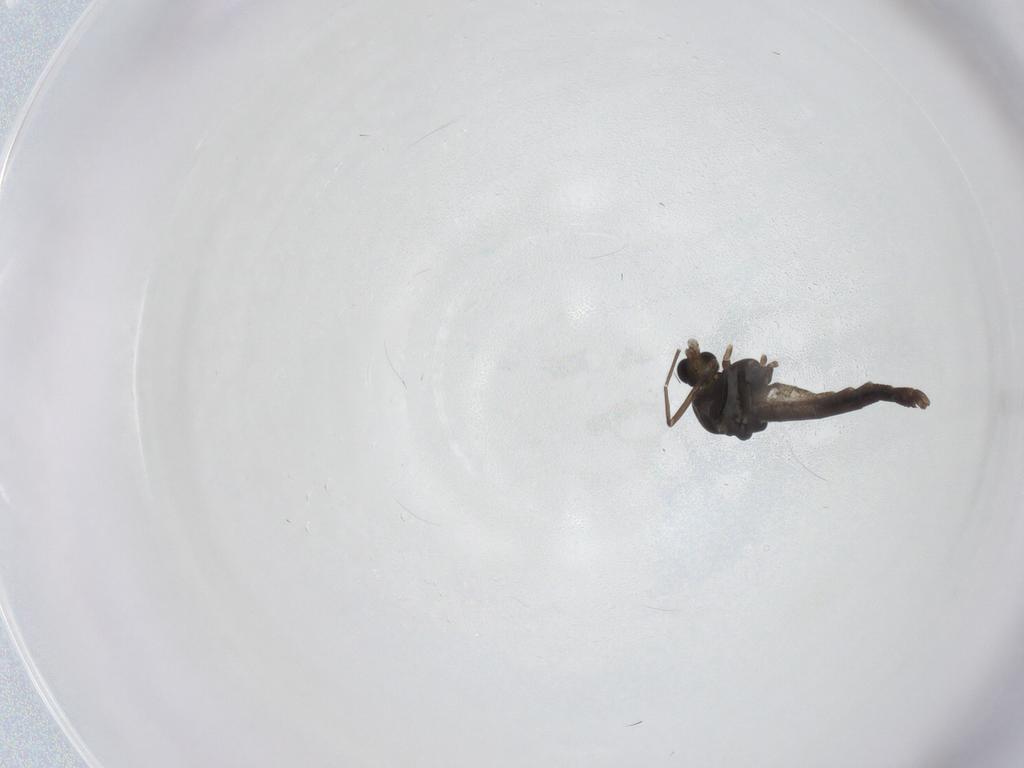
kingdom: Animalia
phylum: Arthropoda
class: Insecta
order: Diptera
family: Chironomidae
